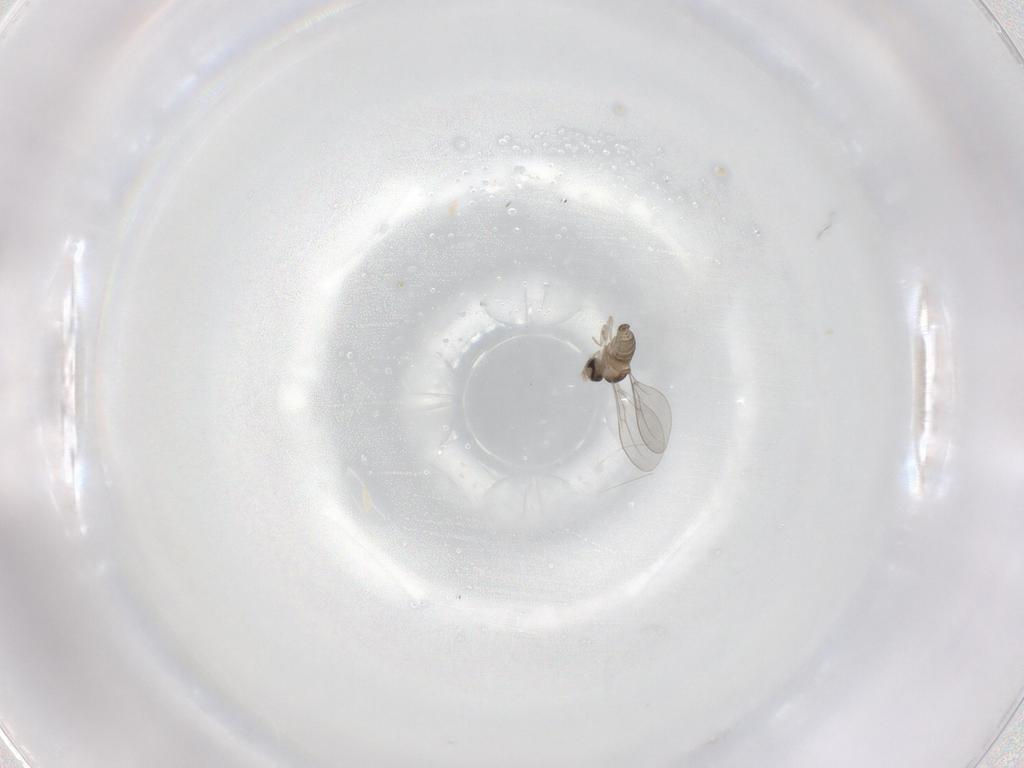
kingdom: Animalia
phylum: Arthropoda
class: Insecta
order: Diptera
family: Cecidomyiidae
